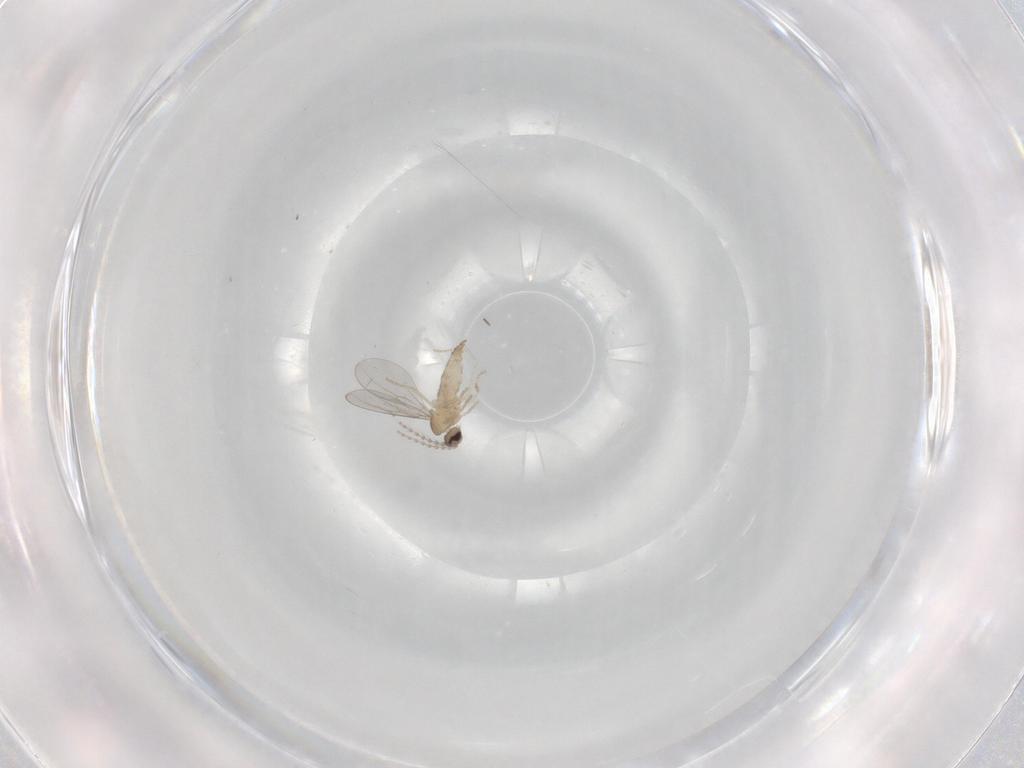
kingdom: Animalia
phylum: Arthropoda
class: Insecta
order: Diptera
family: Cecidomyiidae
